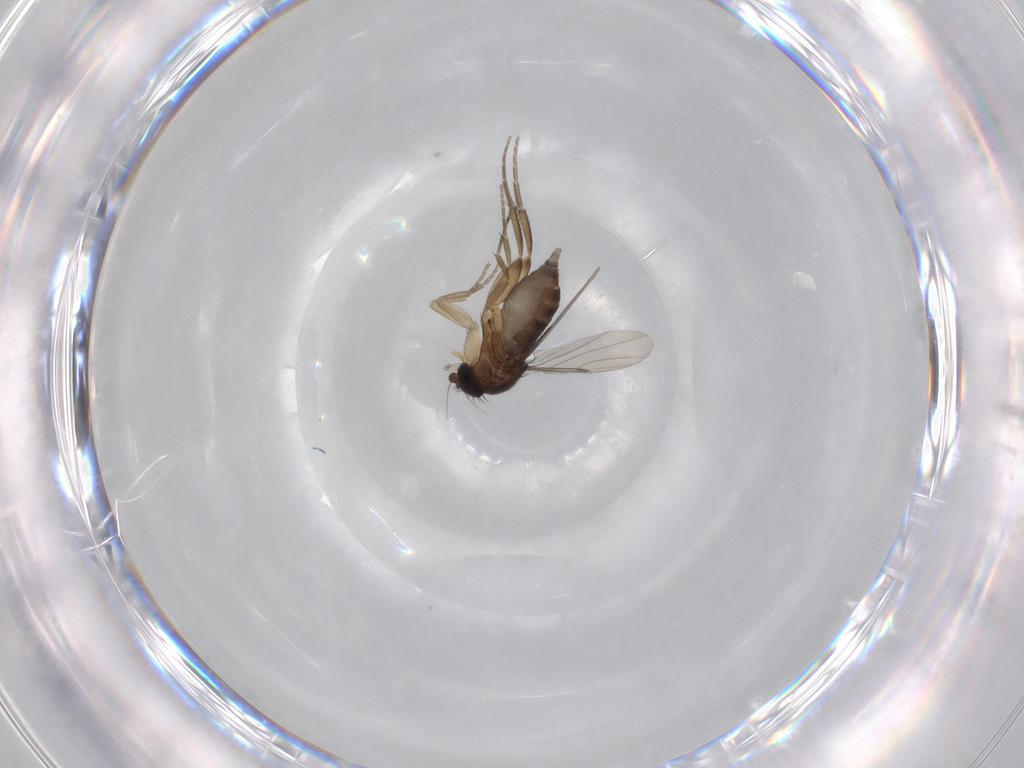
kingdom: Animalia
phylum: Arthropoda
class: Insecta
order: Diptera
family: Phoridae
